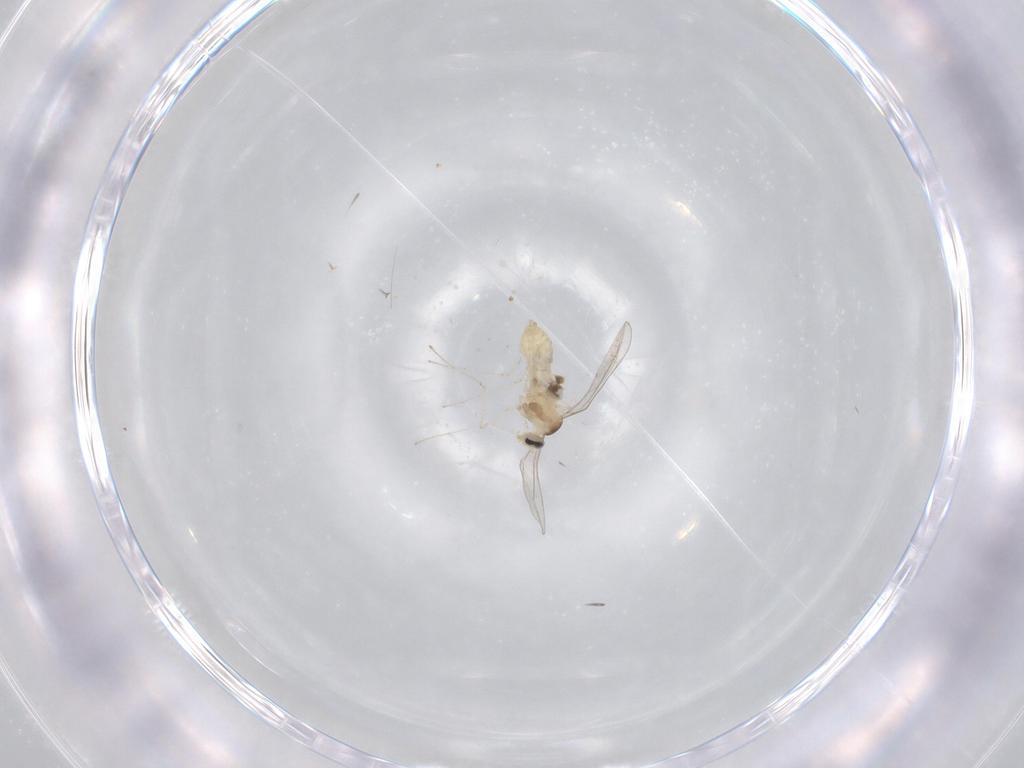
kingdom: Animalia
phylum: Arthropoda
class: Insecta
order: Diptera
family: Cecidomyiidae
